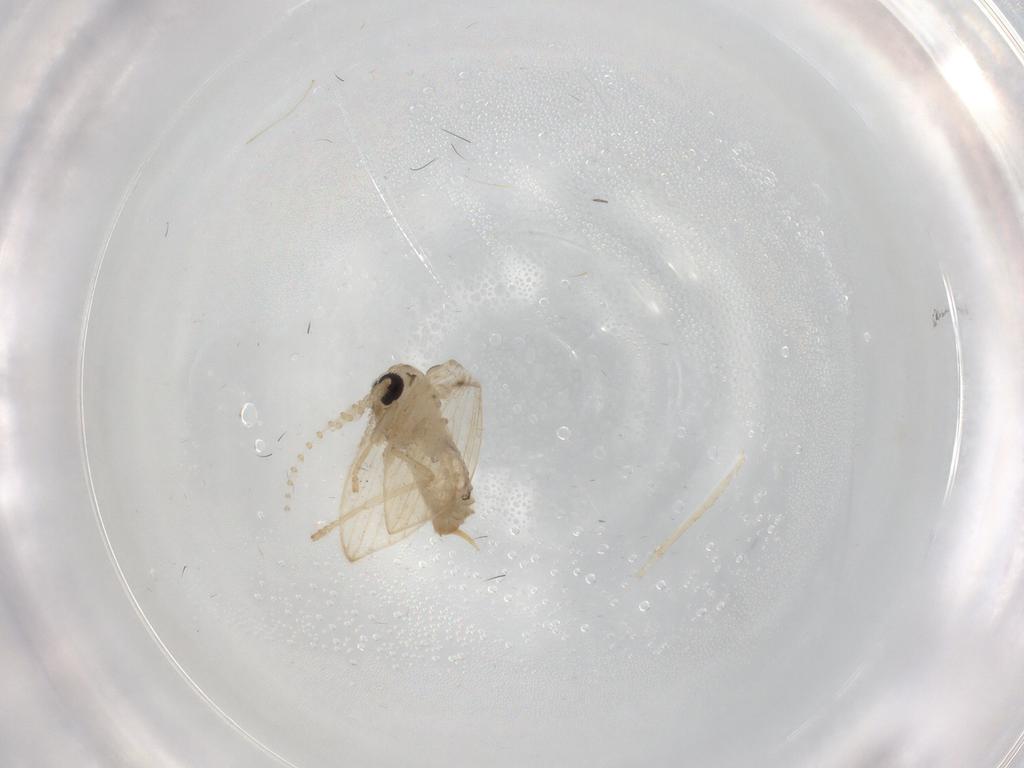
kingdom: Animalia
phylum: Arthropoda
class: Insecta
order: Diptera
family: Psychodidae
